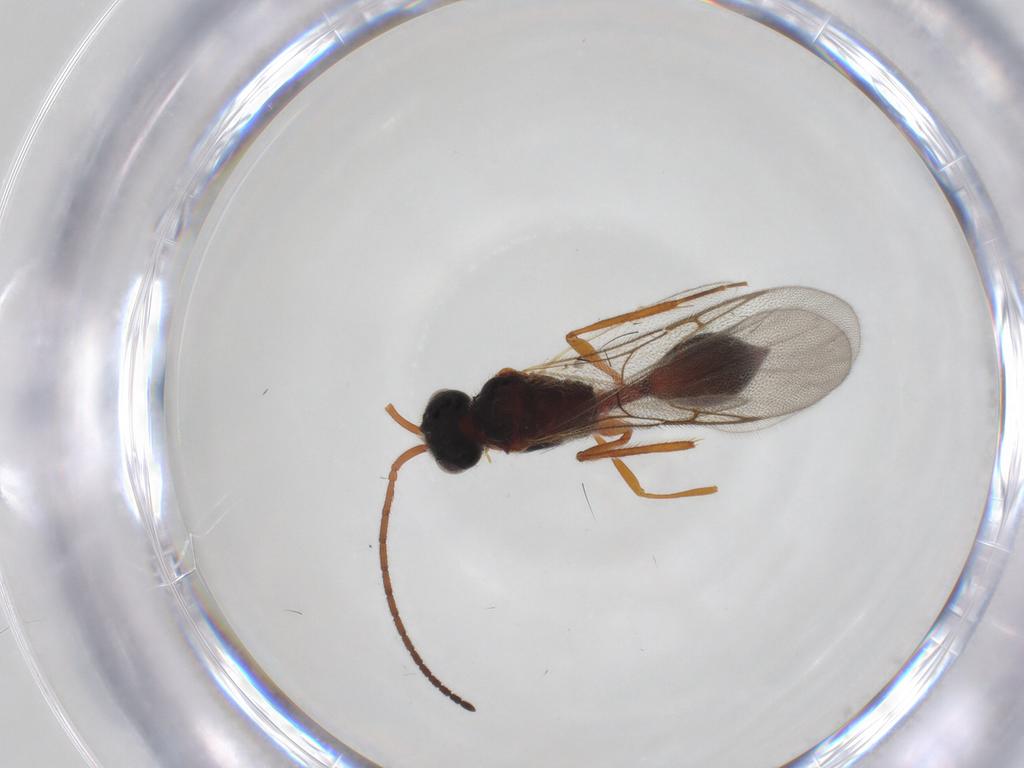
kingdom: Animalia
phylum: Arthropoda
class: Insecta
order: Hymenoptera
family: Diapriidae
